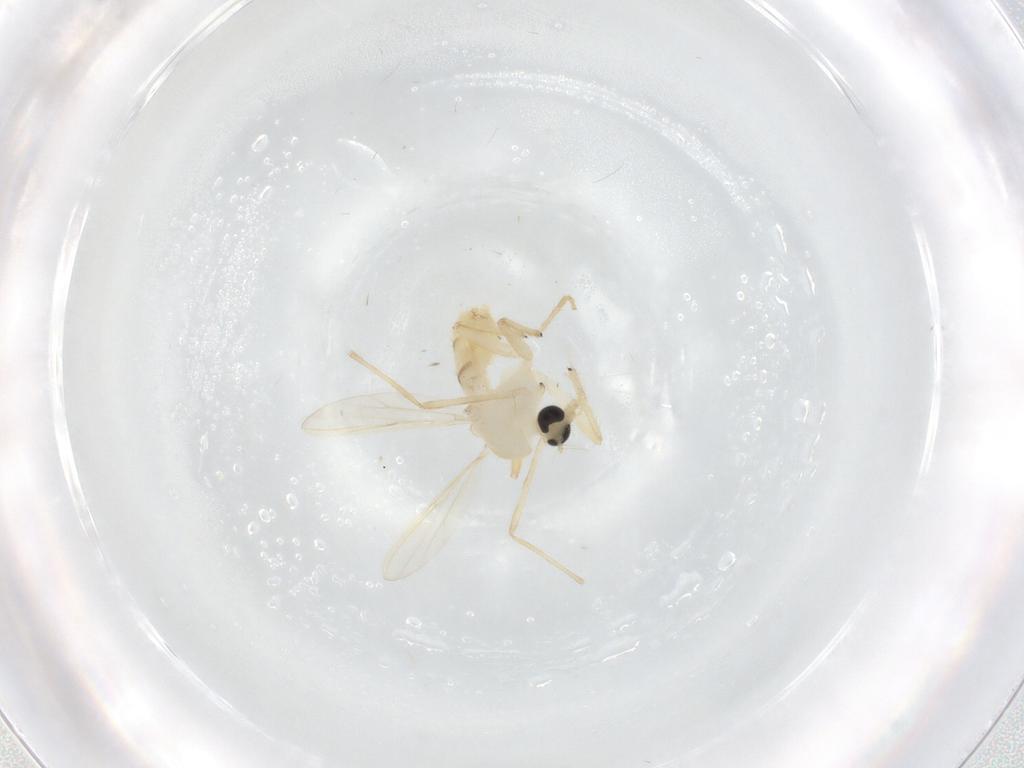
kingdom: Animalia
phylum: Arthropoda
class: Insecta
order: Diptera
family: Chironomidae
